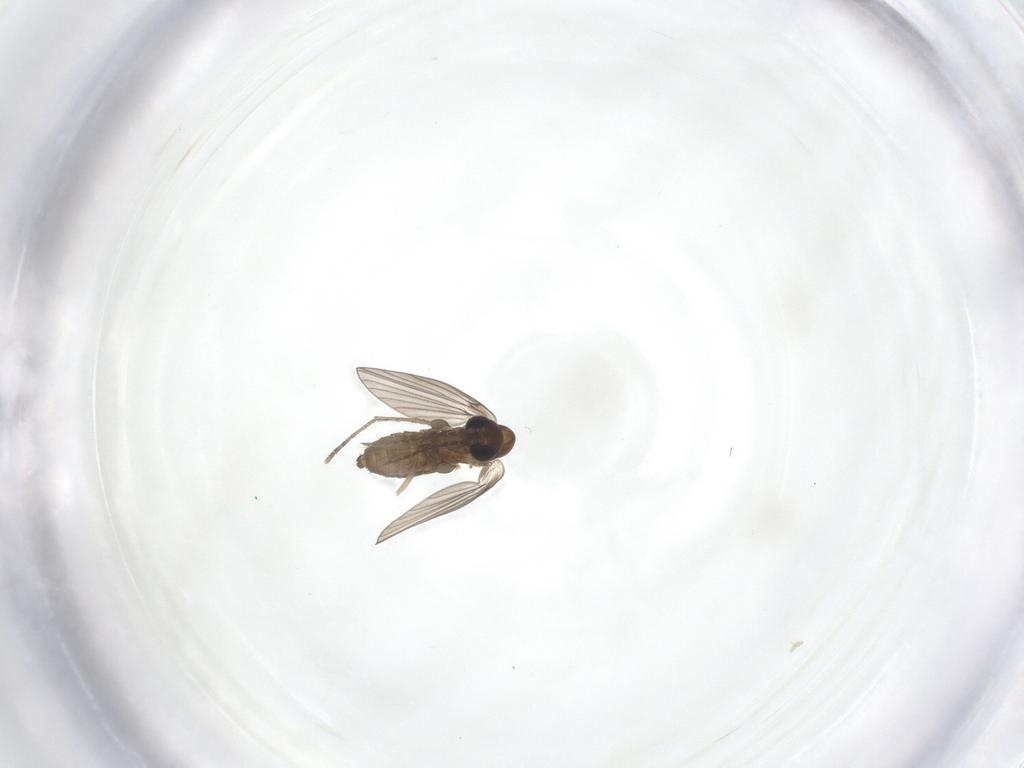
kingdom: Animalia
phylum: Arthropoda
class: Insecta
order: Diptera
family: Psychodidae
